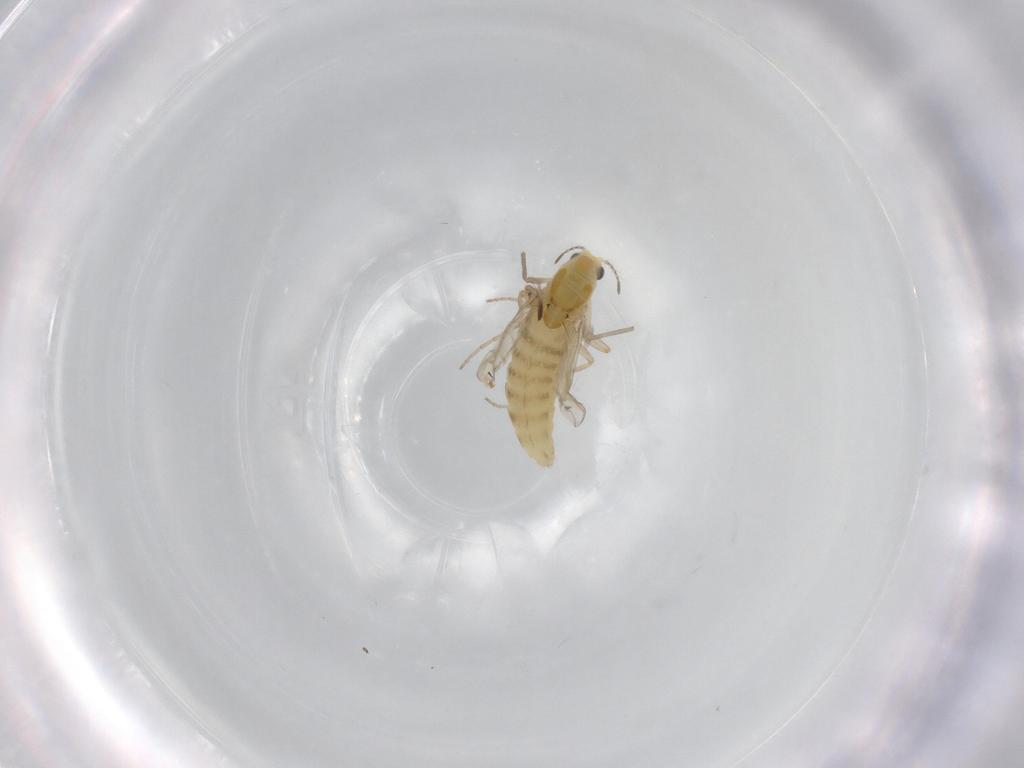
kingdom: Animalia
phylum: Arthropoda
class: Insecta
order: Diptera
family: Chironomidae
